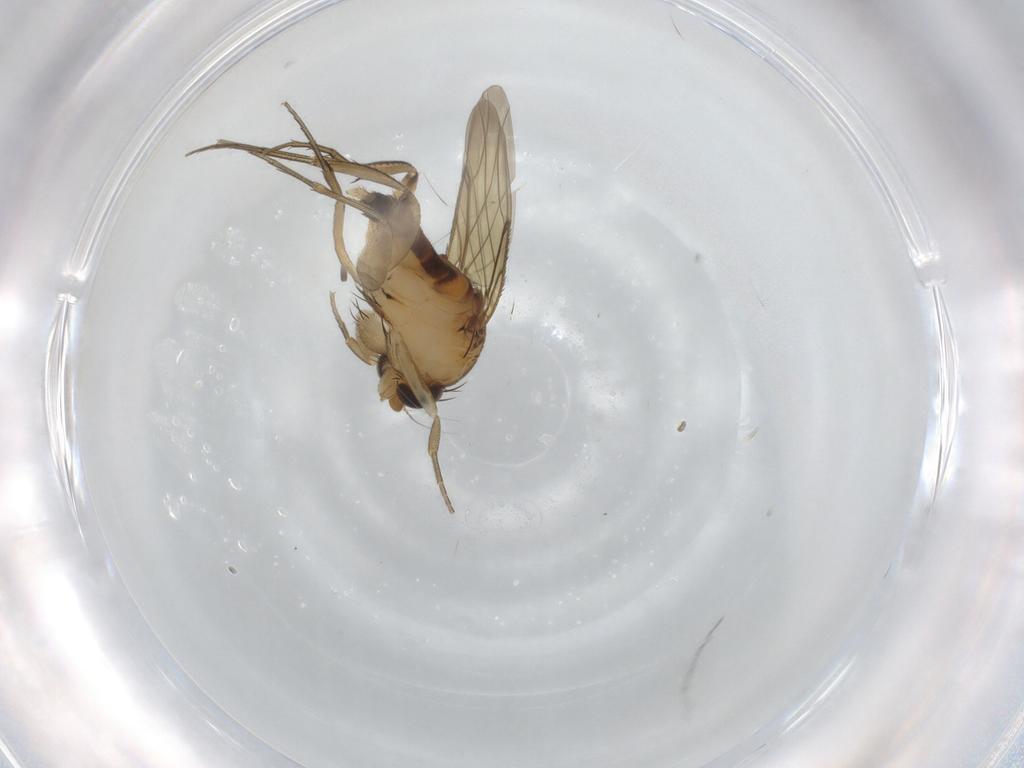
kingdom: Animalia
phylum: Arthropoda
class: Insecta
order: Diptera
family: Phoridae
